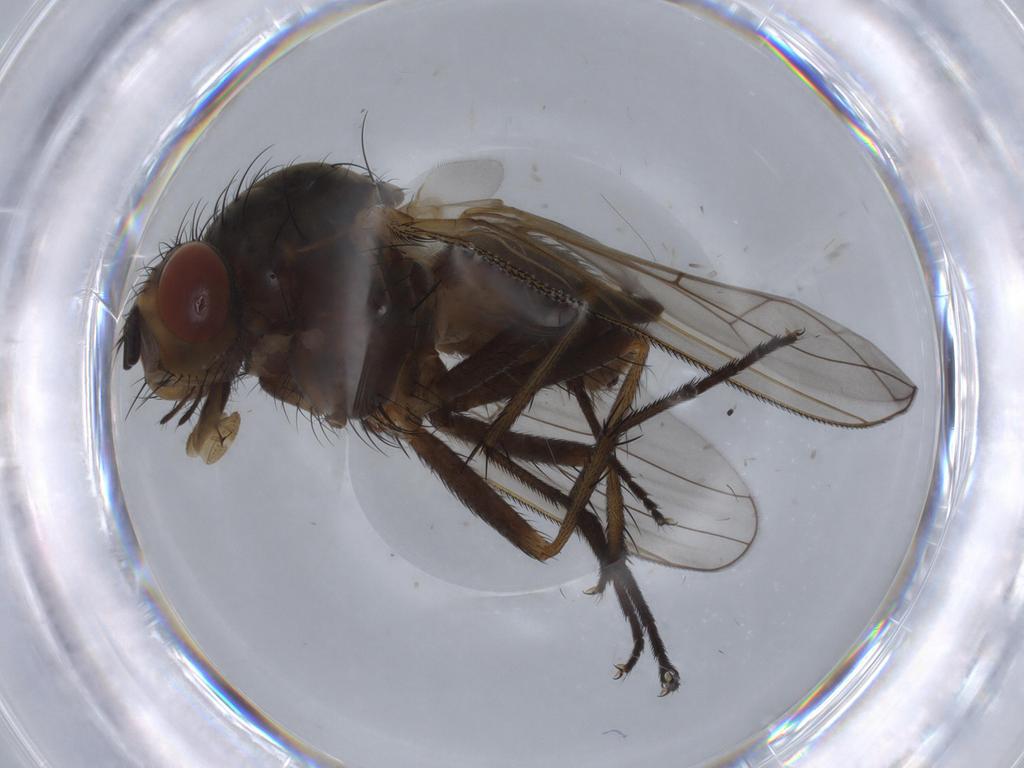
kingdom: Animalia
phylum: Arthropoda
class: Insecta
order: Diptera
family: Anthomyiidae
